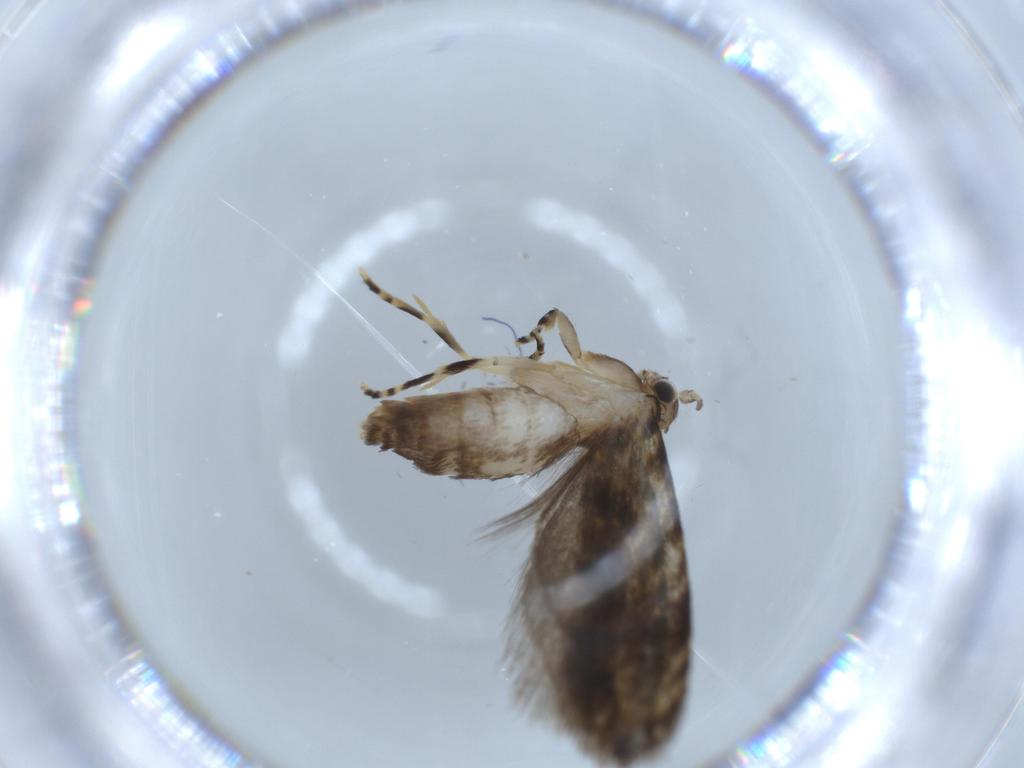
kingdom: Animalia
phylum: Arthropoda
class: Insecta
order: Lepidoptera
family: Tineidae
